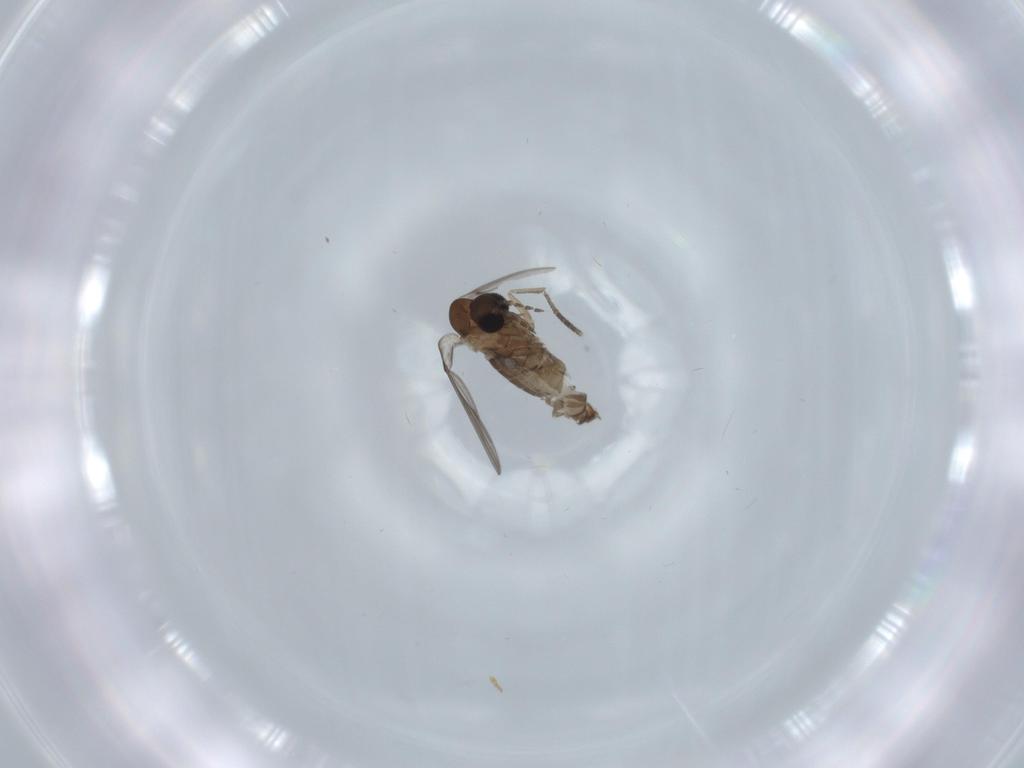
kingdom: Animalia
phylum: Arthropoda
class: Insecta
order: Diptera
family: Psychodidae
